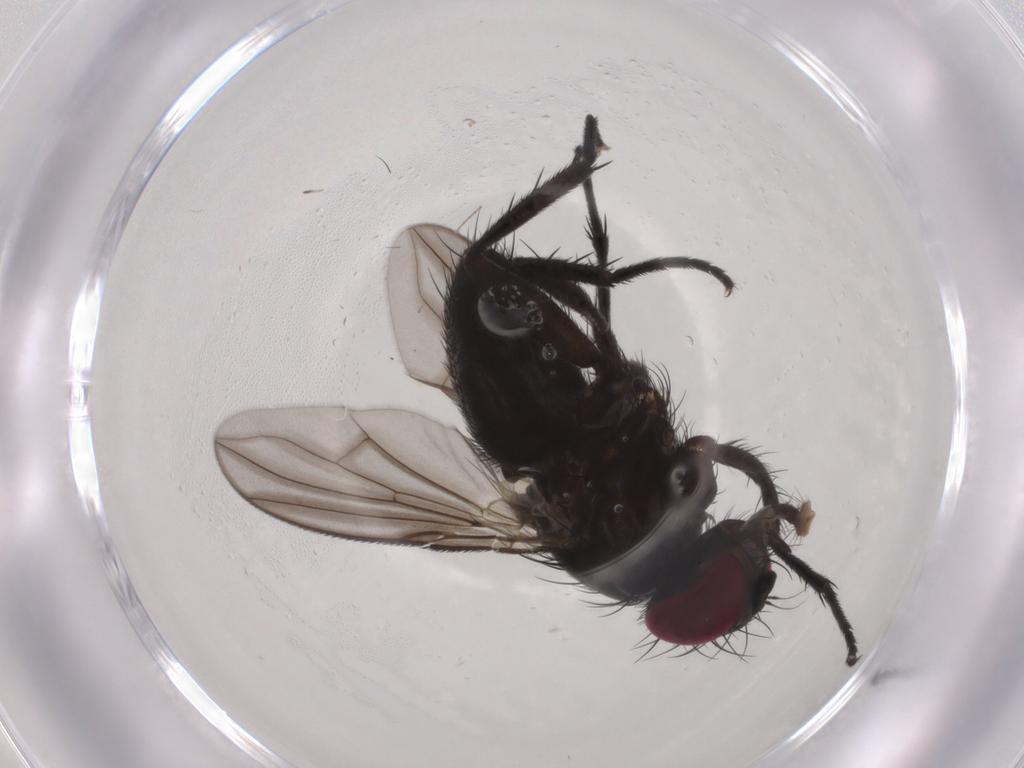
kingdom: Animalia
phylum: Arthropoda
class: Insecta
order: Diptera
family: Calliphoridae
